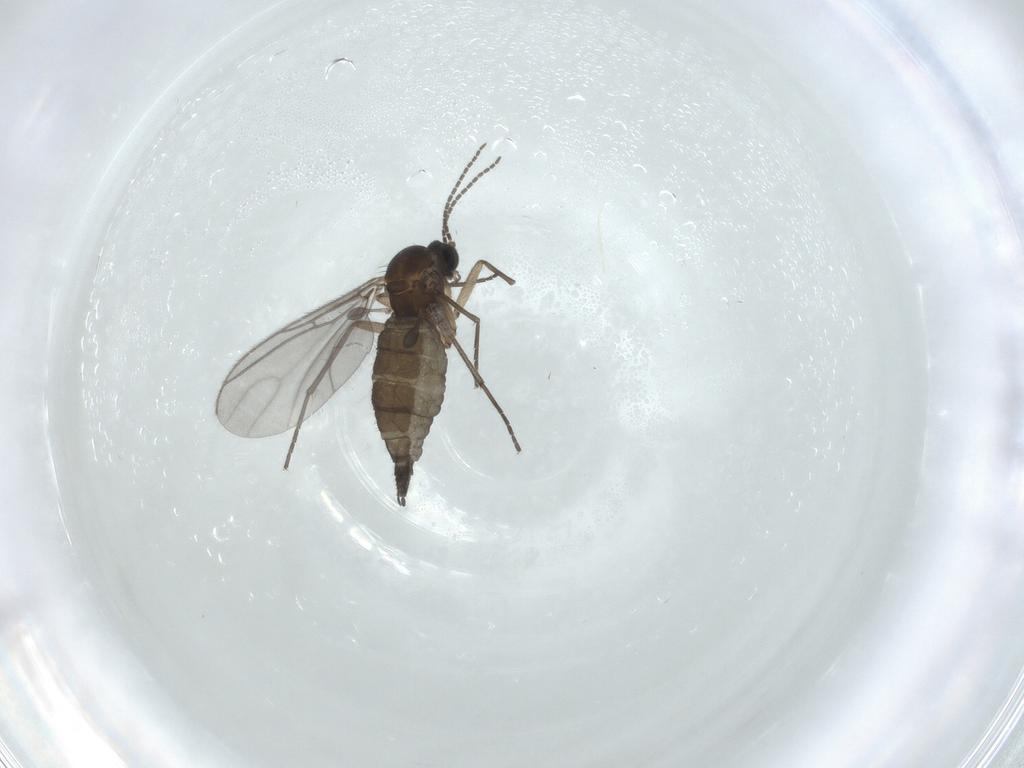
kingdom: Animalia
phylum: Arthropoda
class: Insecta
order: Diptera
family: Sciaridae
